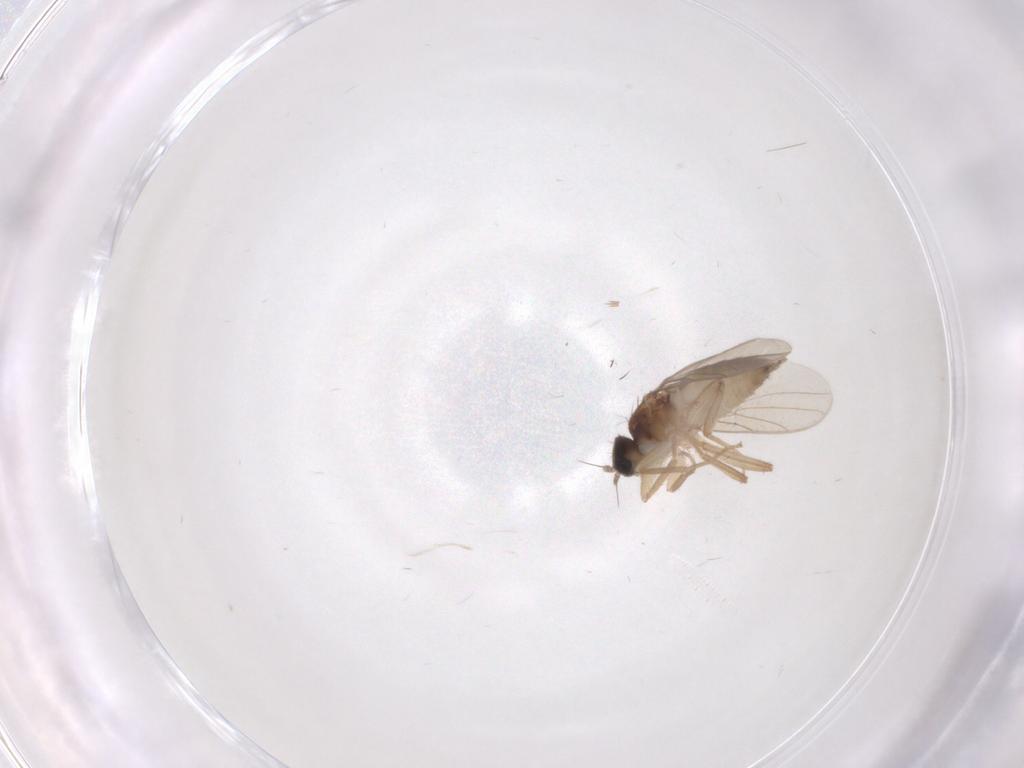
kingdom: Animalia
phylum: Arthropoda
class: Insecta
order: Diptera
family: Hybotidae
